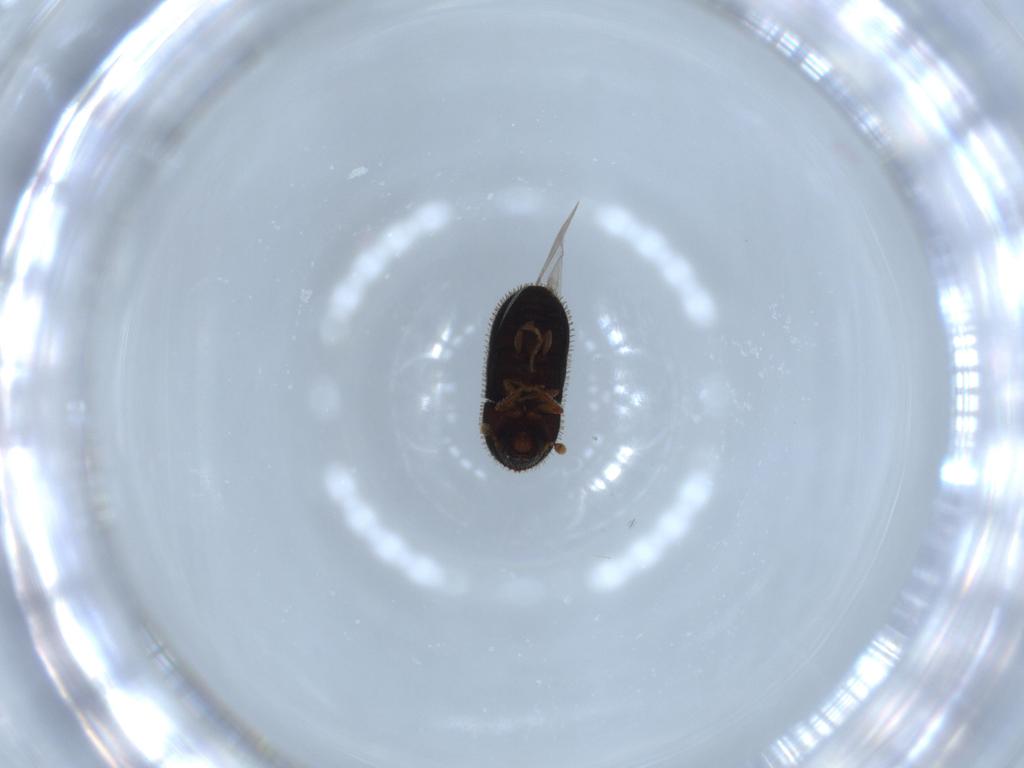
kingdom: Animalia
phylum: Arthropoda
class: Insecta
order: Coleoptera
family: Curculionidae
